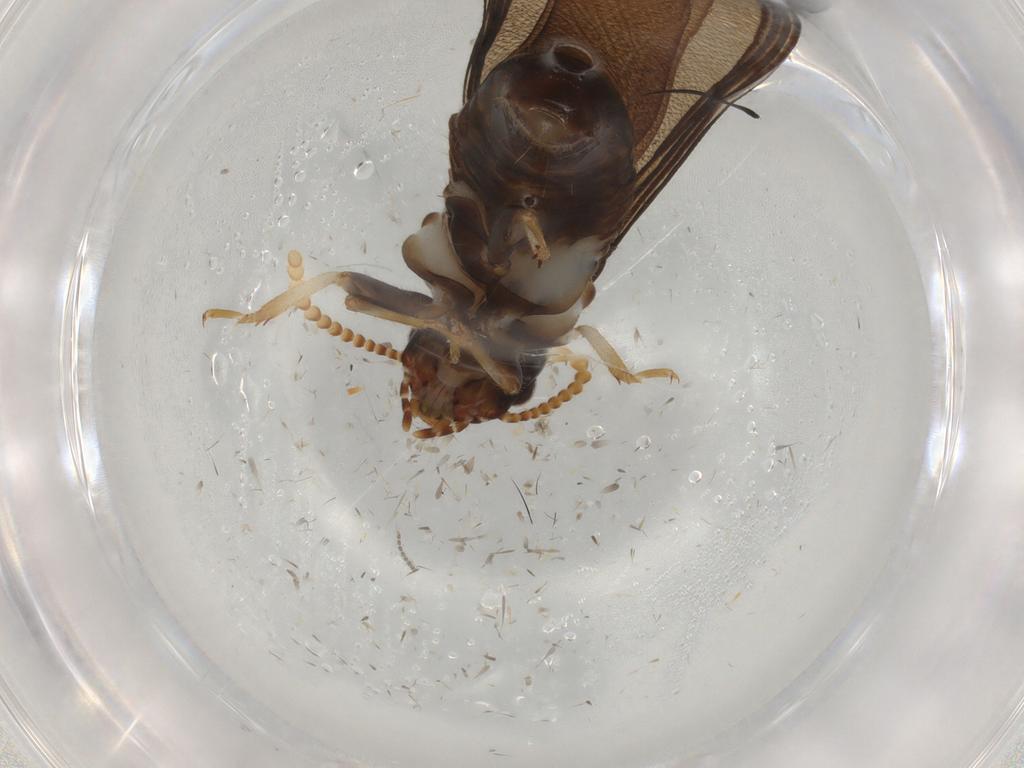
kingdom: Animalia
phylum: Arthropoda
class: Insecta
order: Blattodea
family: Kalotermitidae
